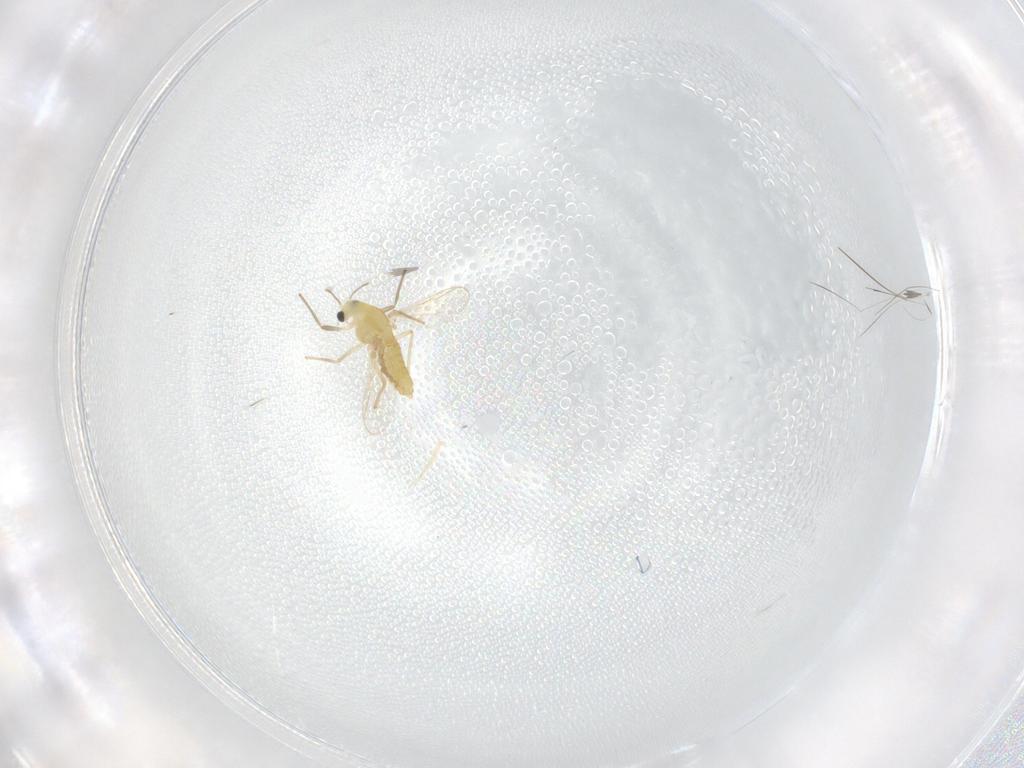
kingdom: Animalia
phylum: Arthropoda
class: Insecta
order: Diptera
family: Chironomidae
